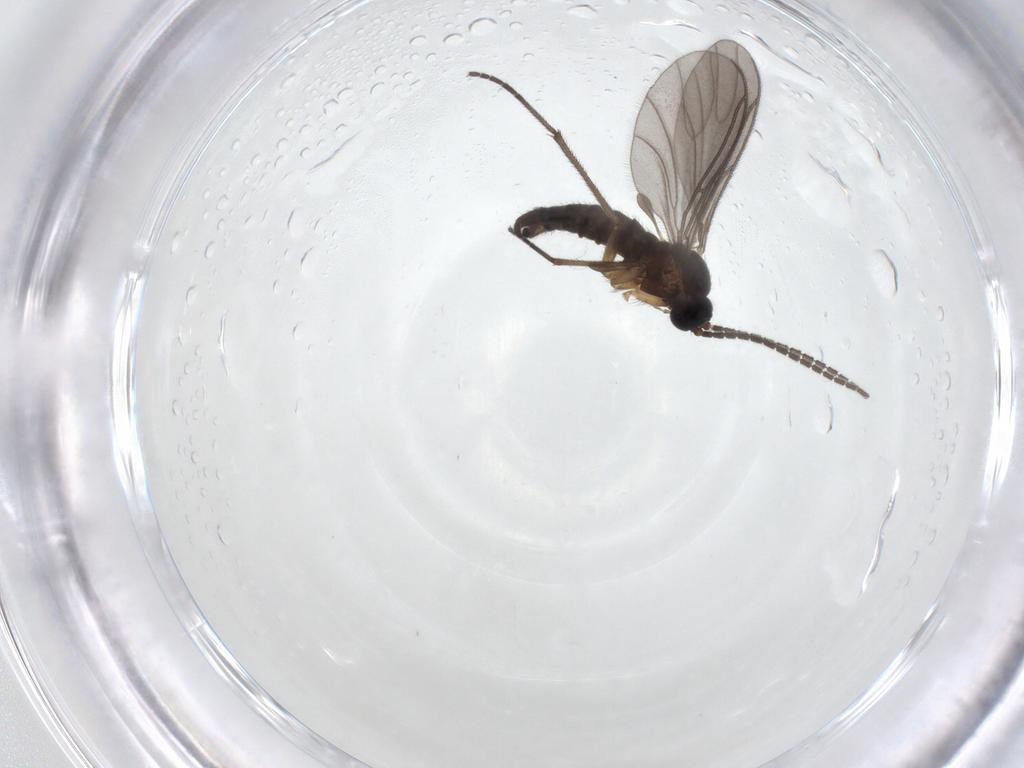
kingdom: Animalia
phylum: Arthropoda
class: Insecta
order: Diptera
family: Sciaridae
